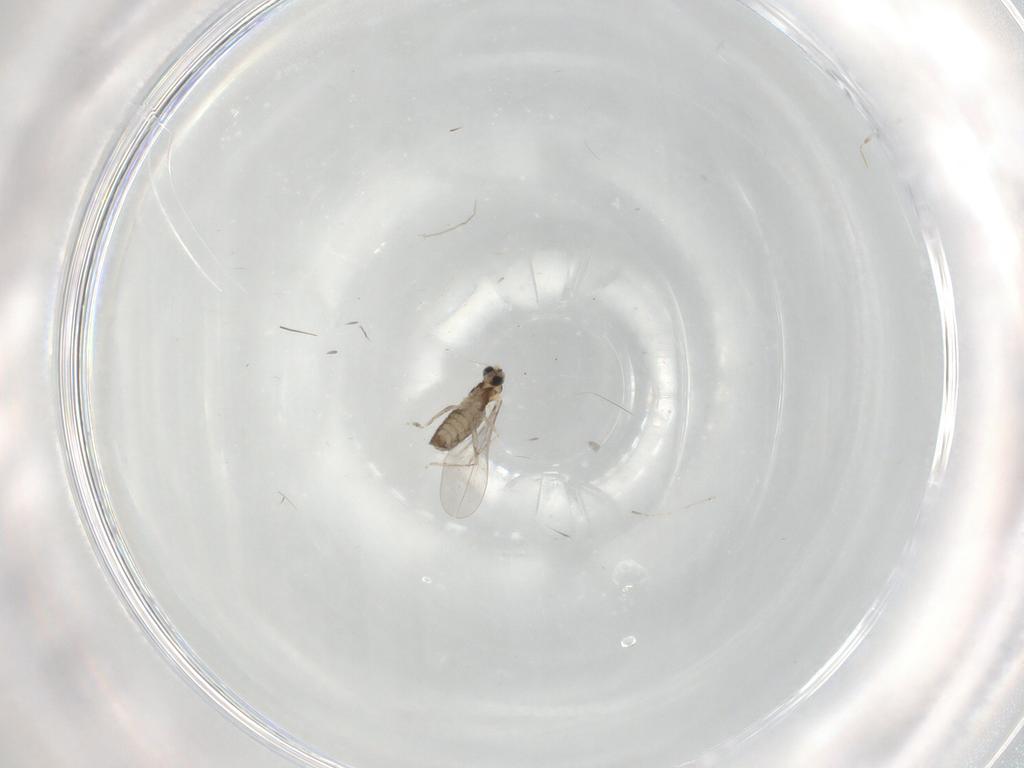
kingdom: Animalia
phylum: Arthropoda
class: Insecta
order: Diptera
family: Cecidomyiidae
